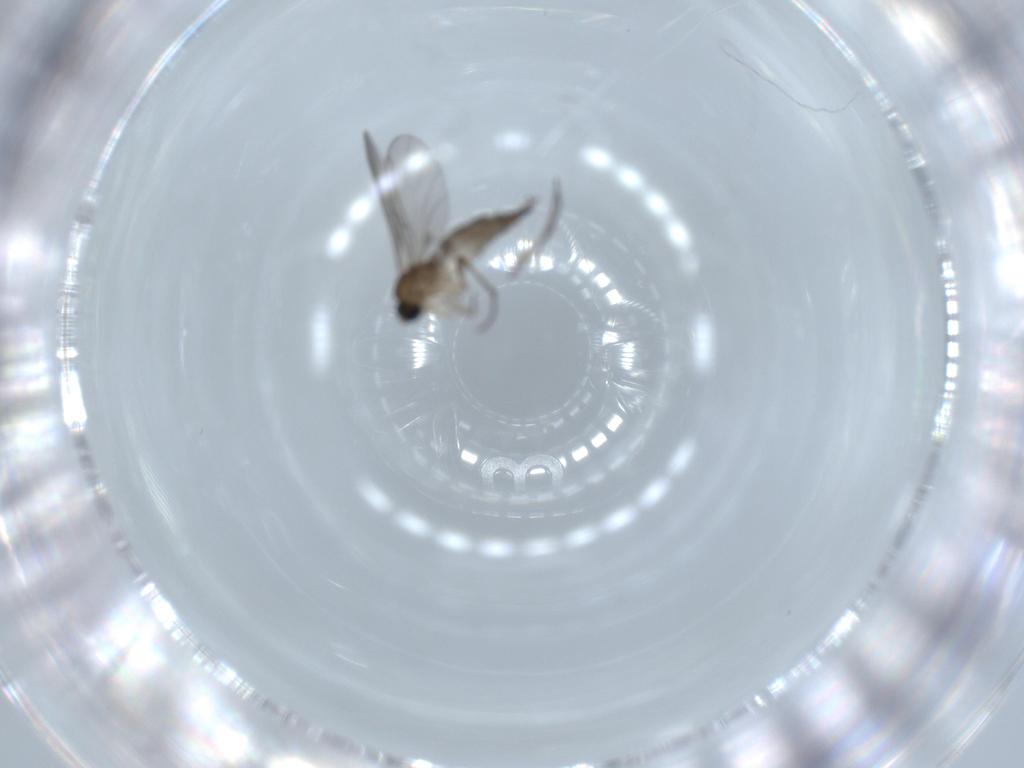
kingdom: Animalia
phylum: Arthropoda
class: Insecta
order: Diptera
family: Sciaridae
